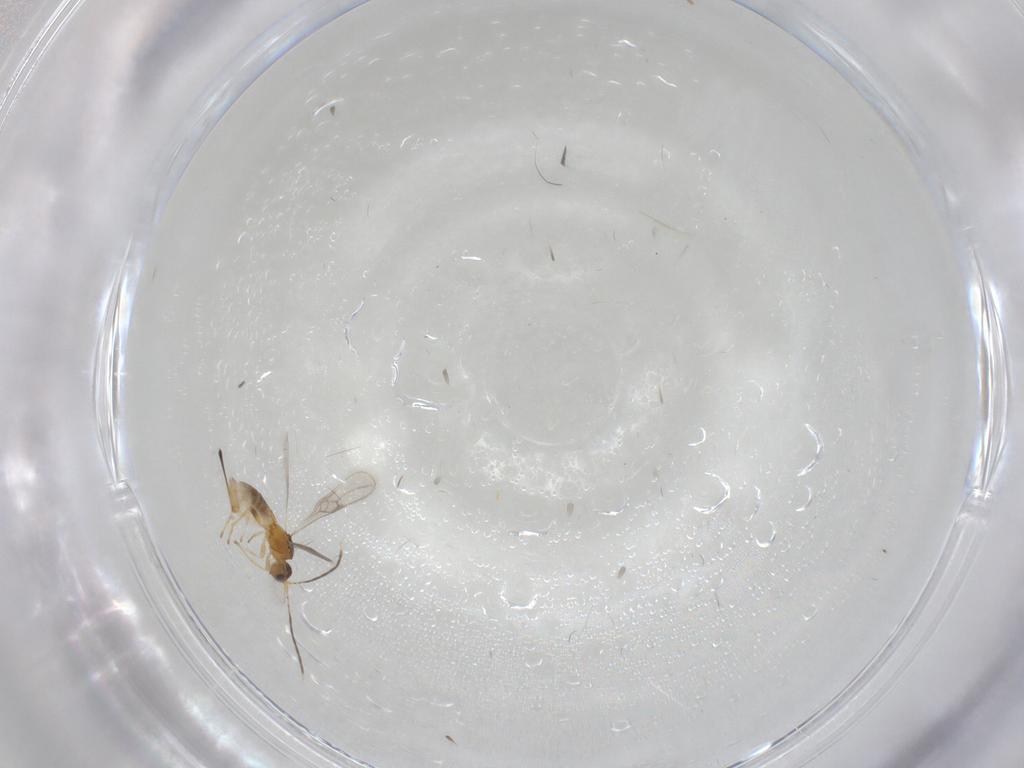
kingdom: Animalia
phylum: Arthropoda
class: Insecta
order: Hymenoptera
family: Braconidae
